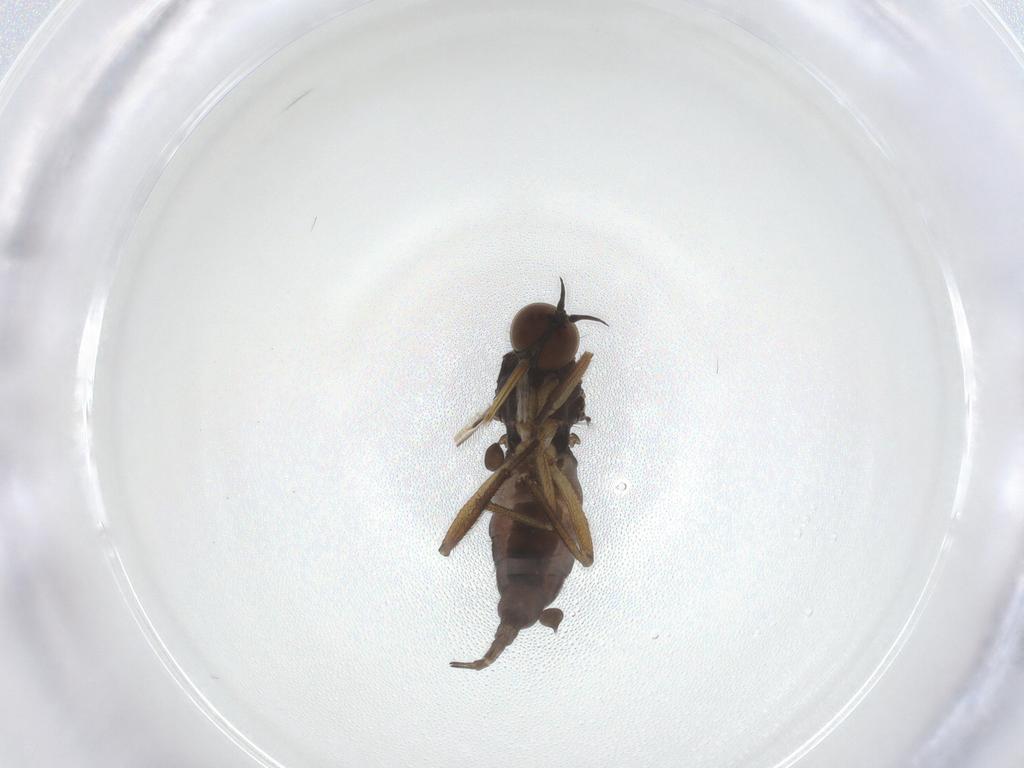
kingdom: Animalia
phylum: Arthropoda
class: Insecta
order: Diptera
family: Empididae
